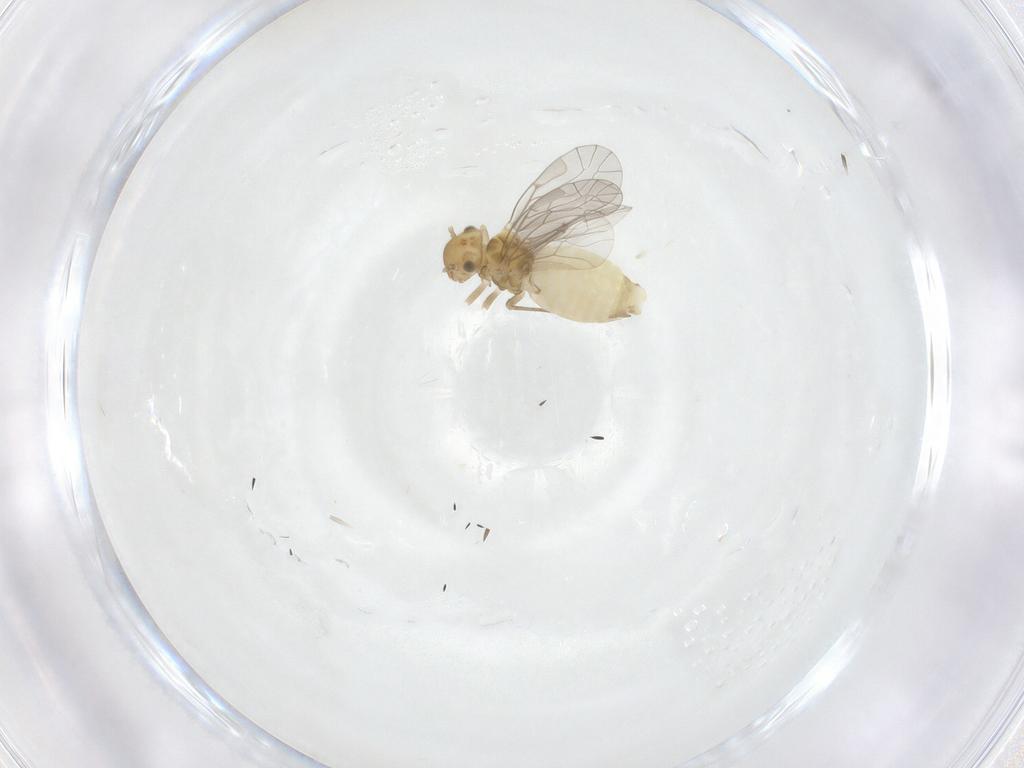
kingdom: Animalia
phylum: Arthropoda
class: Insecta
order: Psocodea
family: Lachesillidae
